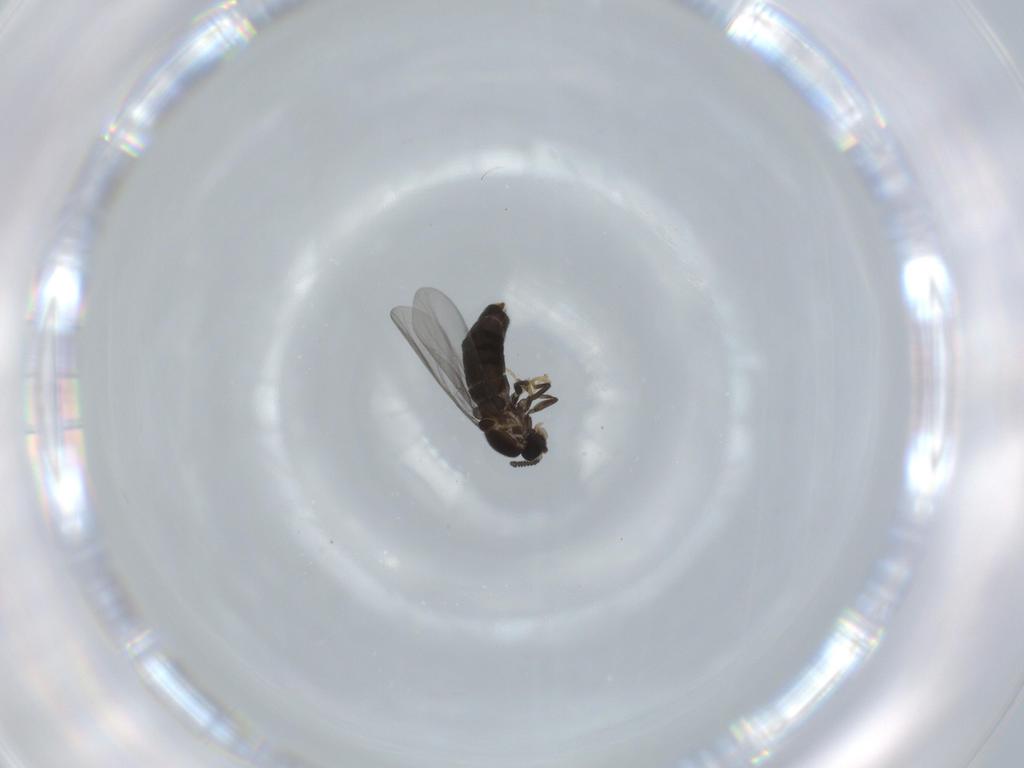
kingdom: Animalia
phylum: Arthropoda
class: Insecta
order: Diptera
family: Scatopsidae
